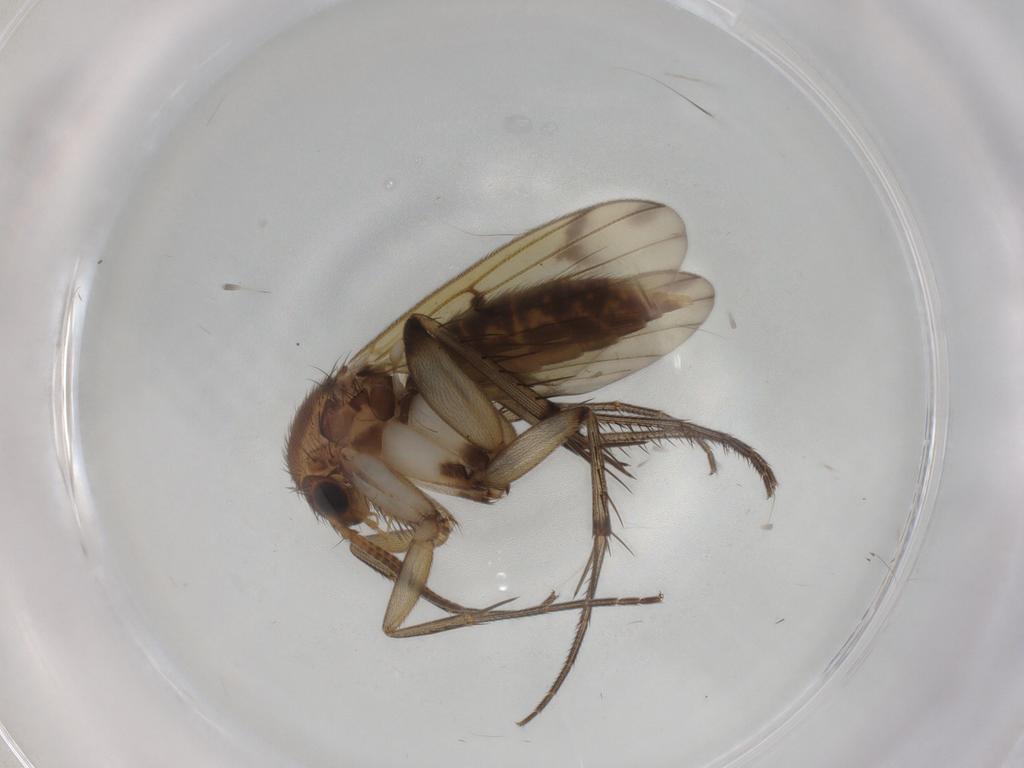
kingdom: Animalia
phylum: Arthropoda
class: Insecta
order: Diptera
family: Mycetophilidae
